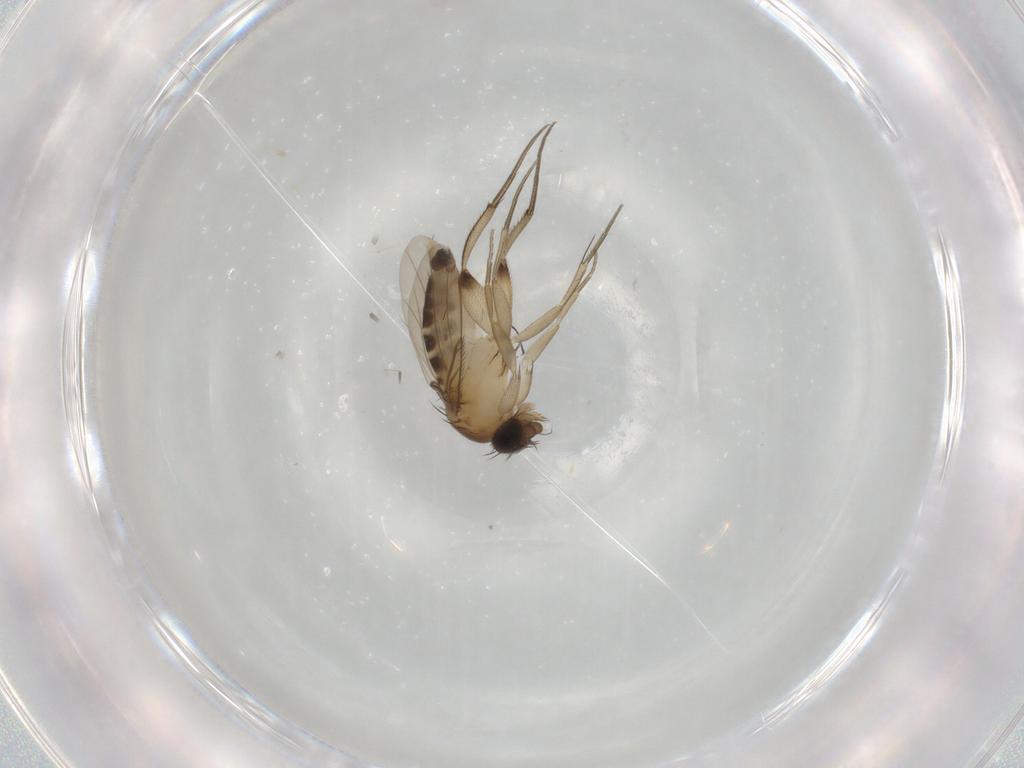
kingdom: Animalia
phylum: Arthropoda
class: Insecta
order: Diptera
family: Phoridae
